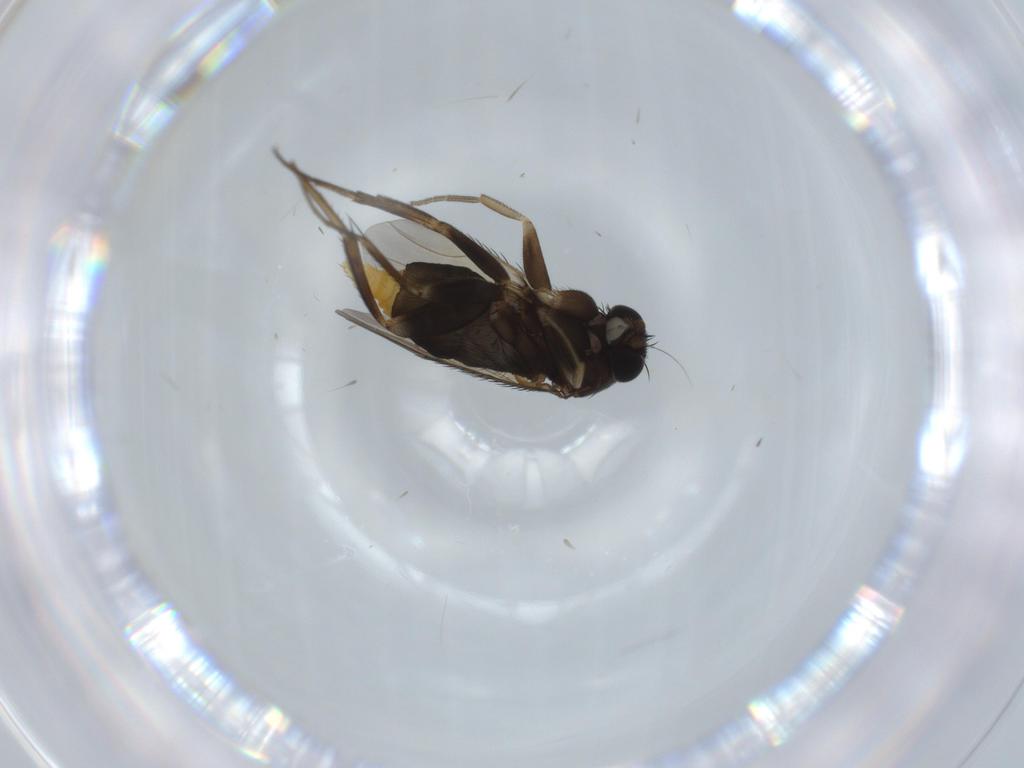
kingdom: Animalia
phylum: Arthropoda
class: Insecta
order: Diptera
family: Phoridae
